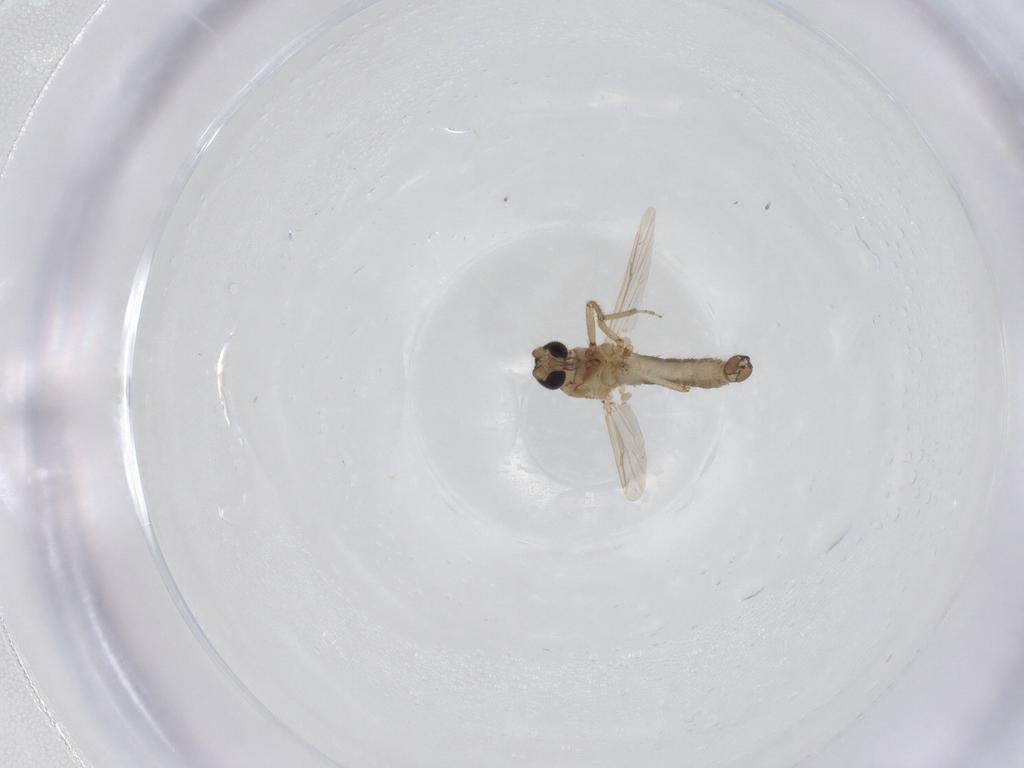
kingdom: Animalia
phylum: Arthropoda
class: Insecta
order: Diptera
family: Ceratopogonidae
